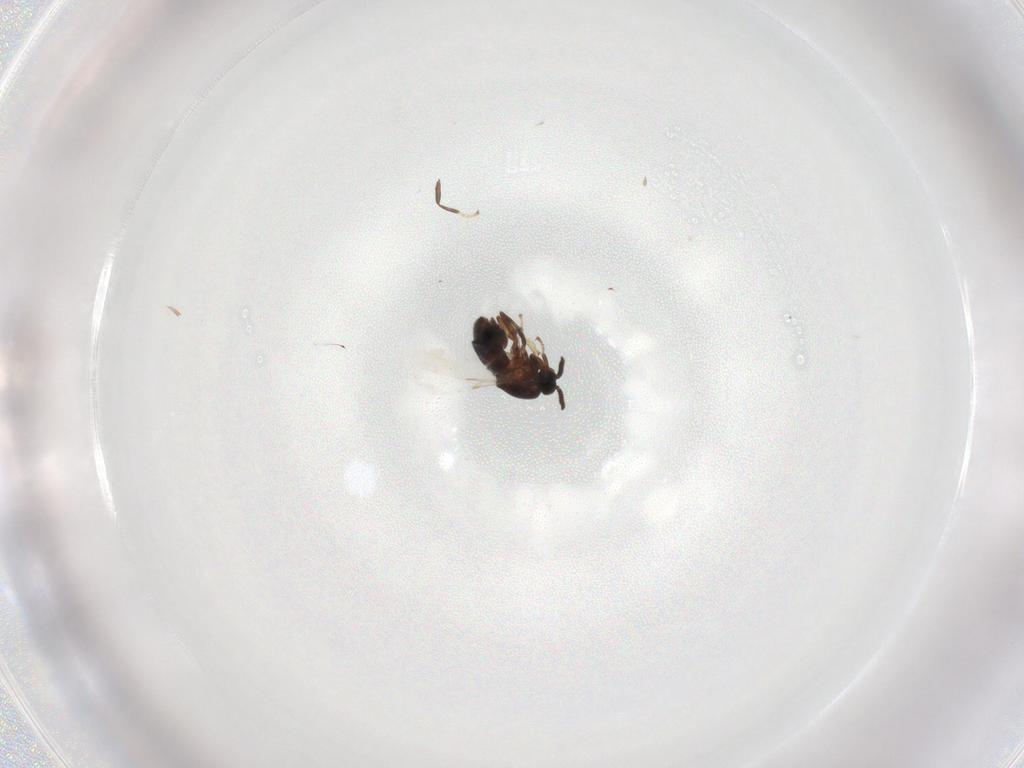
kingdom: Animalia
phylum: Arthropoda
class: Insecta
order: Diptera
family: Scatopsidae
